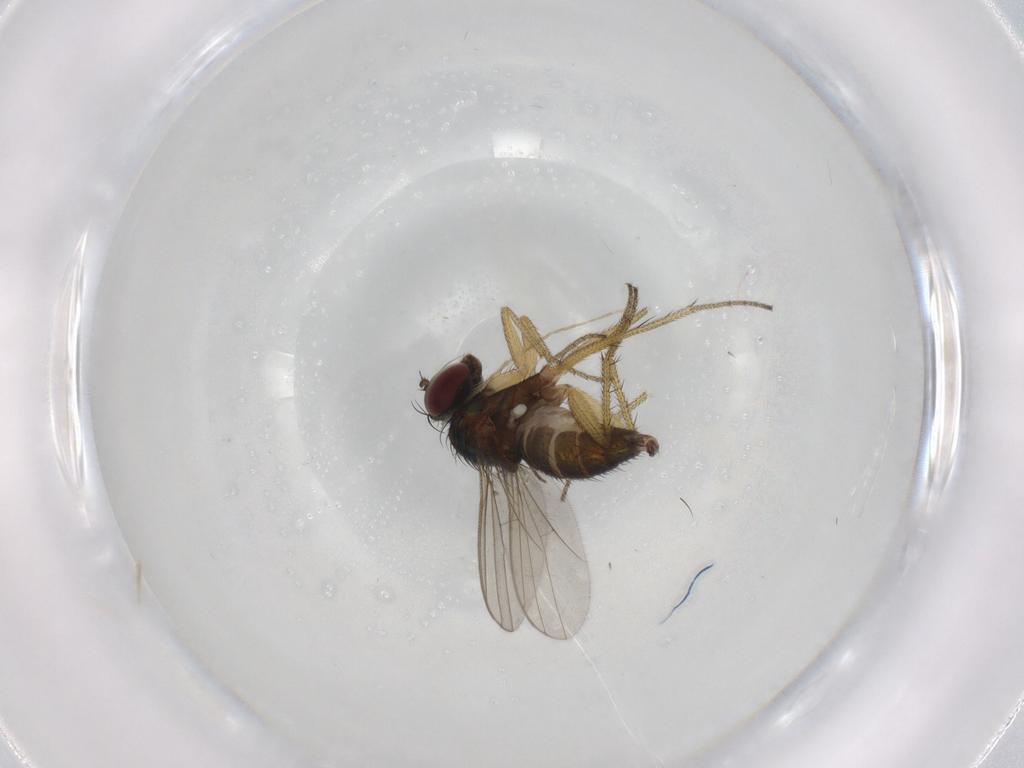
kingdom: Animalia
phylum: Arthropoda
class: Insecta
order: Diptera
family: Dolichopodidae
